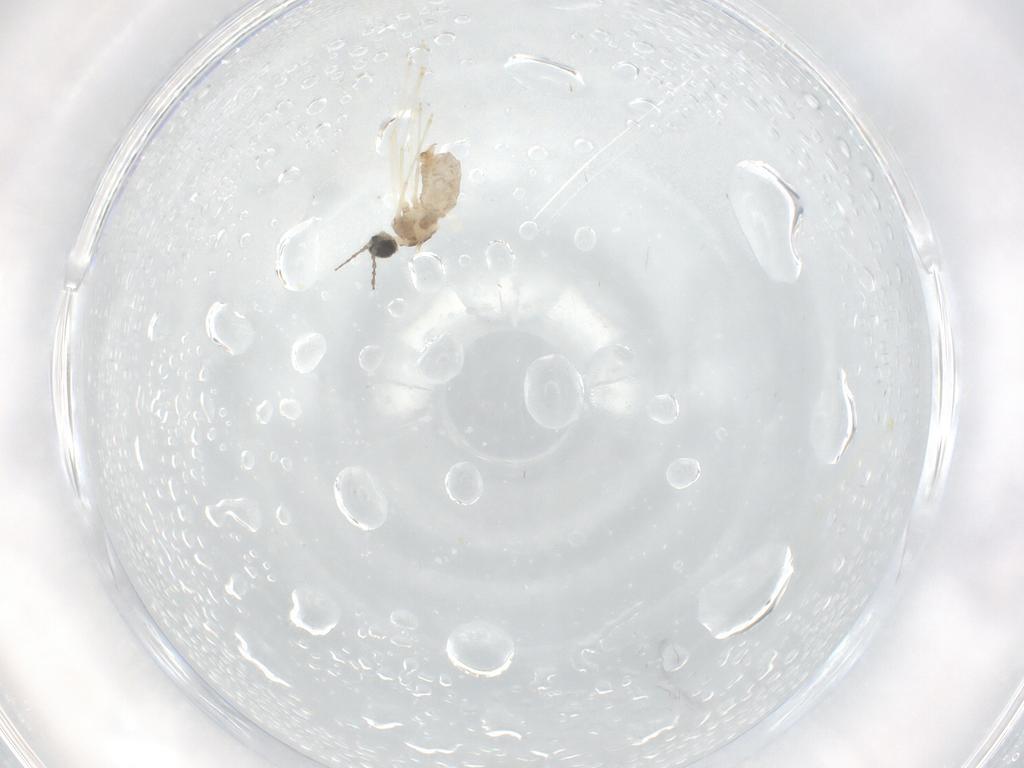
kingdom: Animalia
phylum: Arthropoda
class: Insecta
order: Diptera
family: Cecidomyiidae
